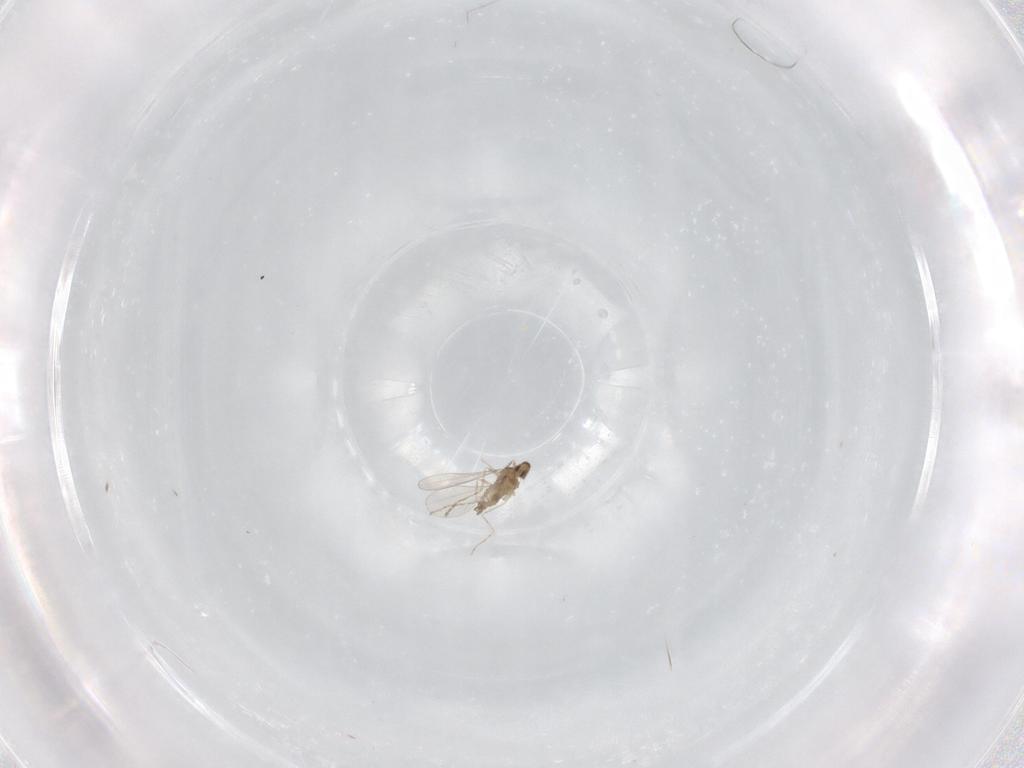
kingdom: Animalia
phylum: Arthropoda
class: Insecta
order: Diptera
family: Cecidomyiidae
